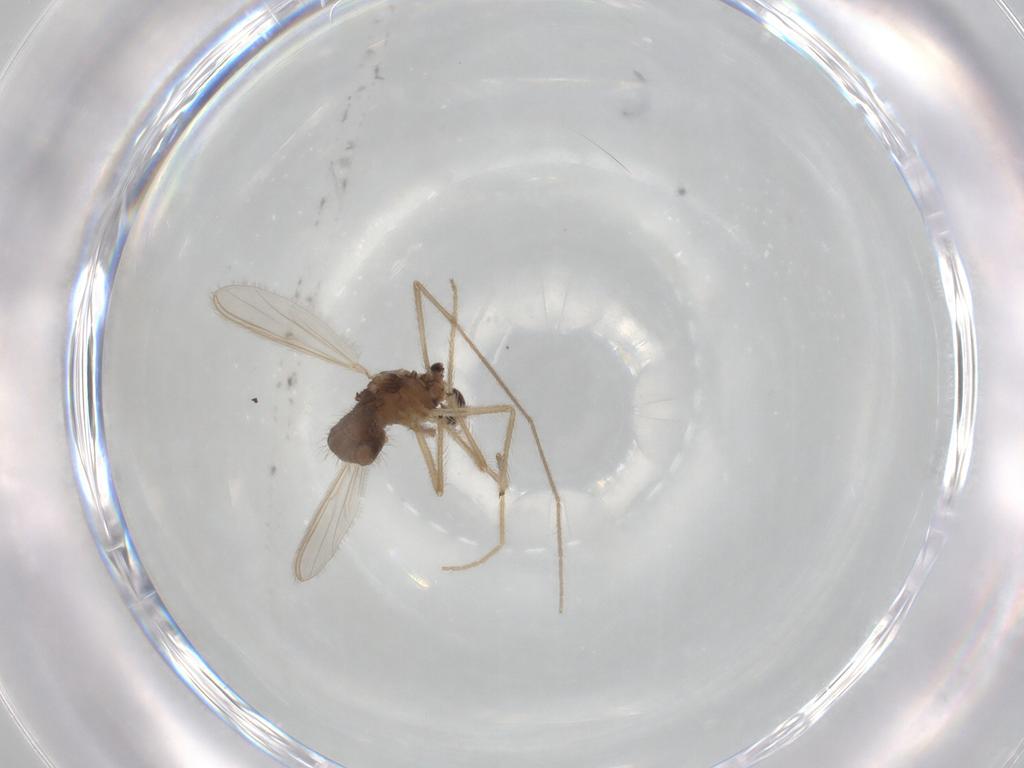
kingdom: Animalia
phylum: Arthropoda
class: Insecta
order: Diptera
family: Chironomidae
